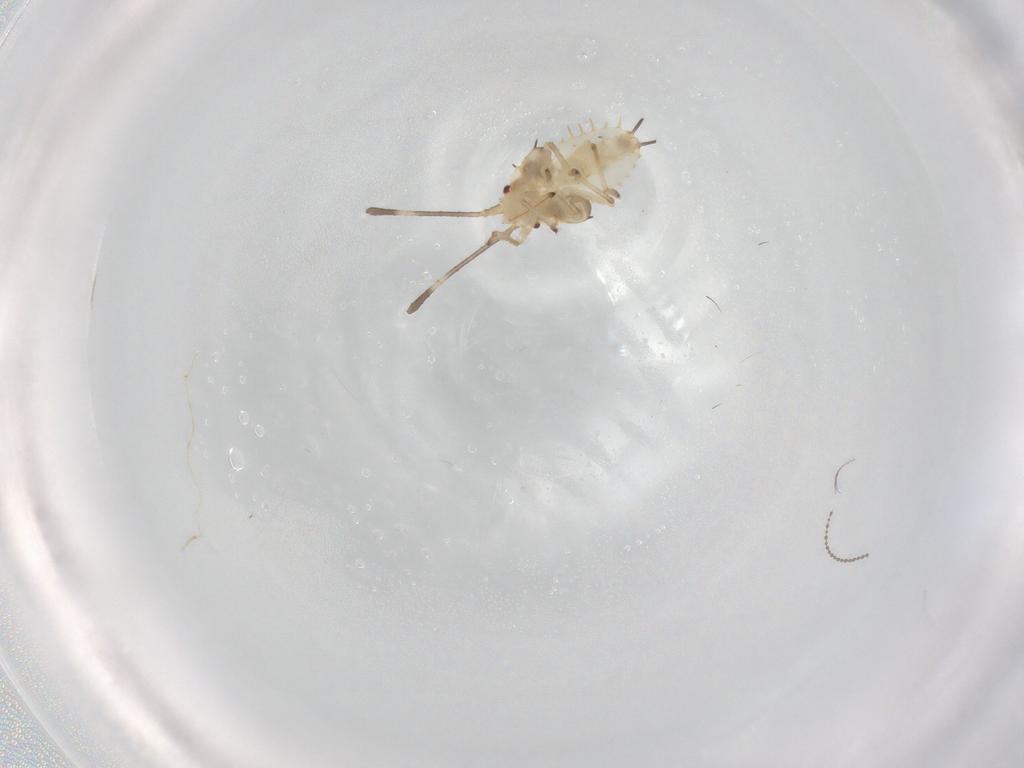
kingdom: Animalia
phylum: Arthropoda
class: Insecta
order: Hemiptera
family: Tingidae
